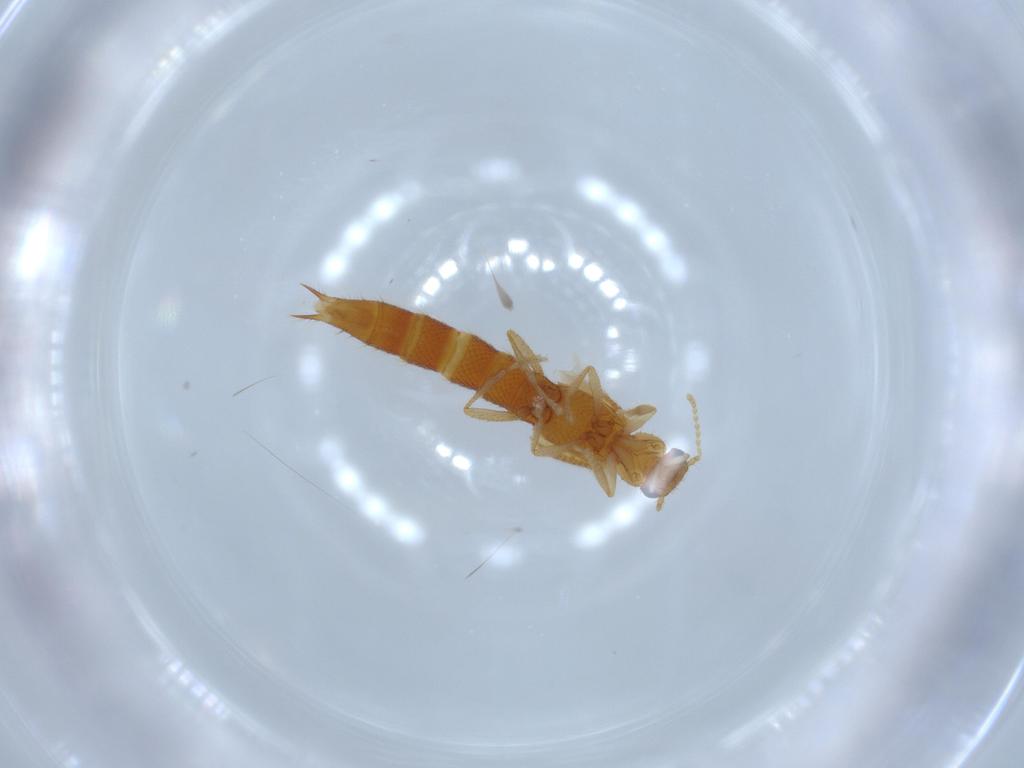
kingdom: Animalia
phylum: Arthropoda
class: Insecta
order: Coleoptera
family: Staphylinidae
